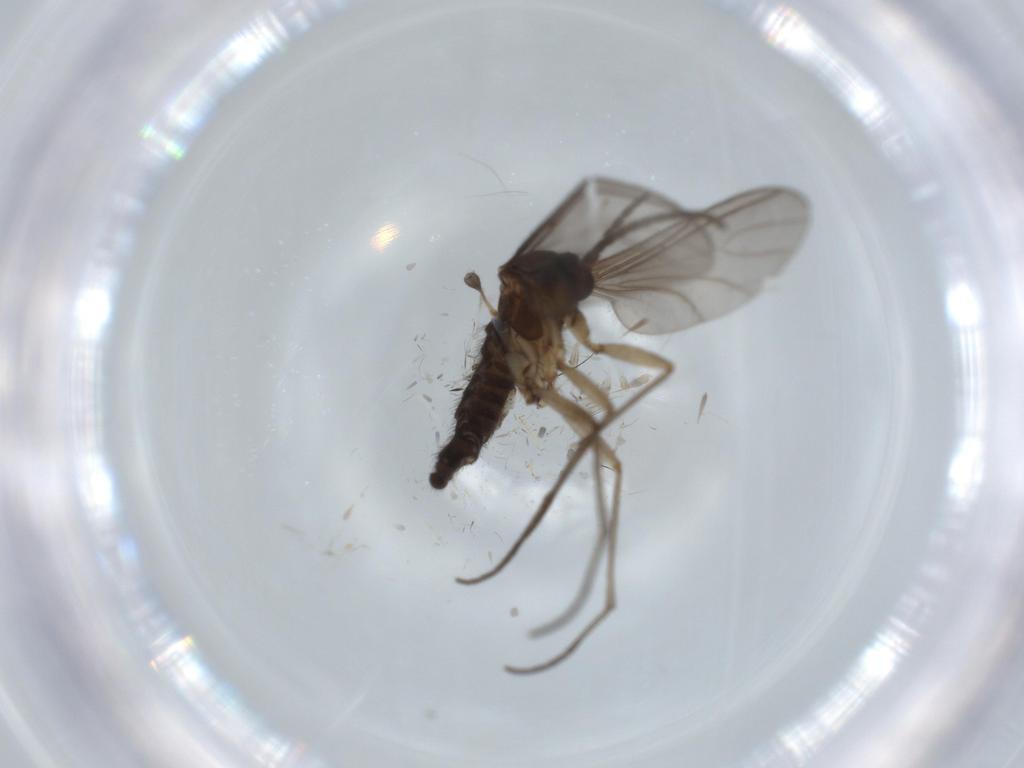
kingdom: Animalia
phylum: Arthropoda
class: Insecta
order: Diptera
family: Sciaridae
